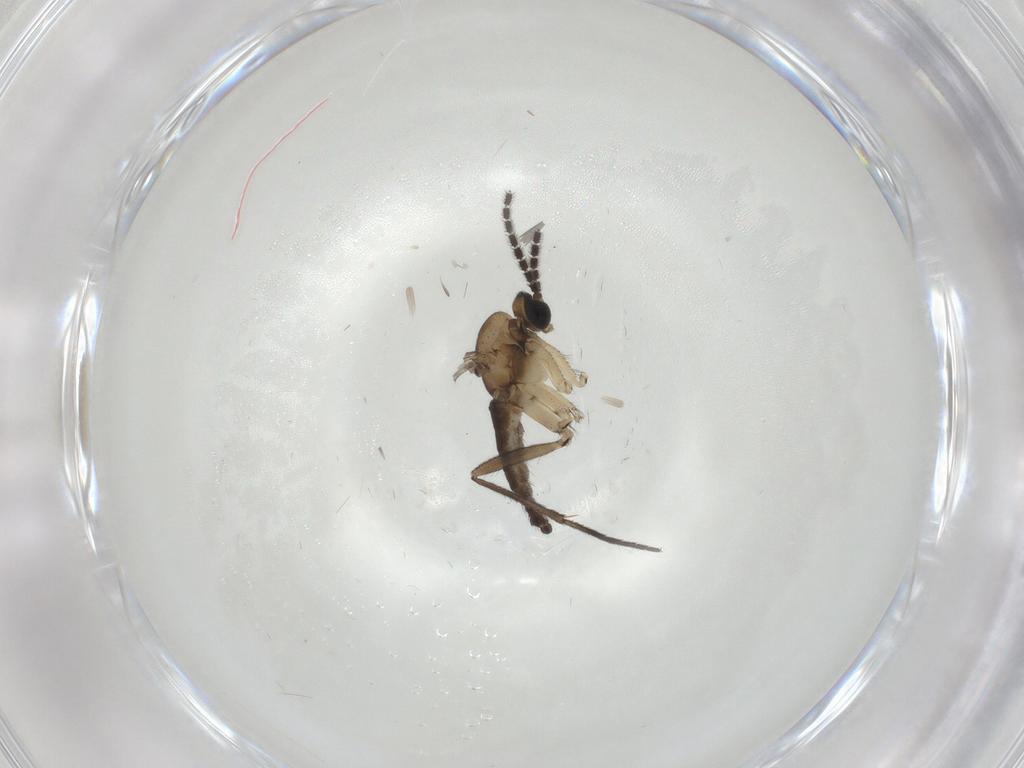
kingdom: Animalia
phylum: Arthropoda
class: Insecta
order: Diptera
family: Sciaridae
